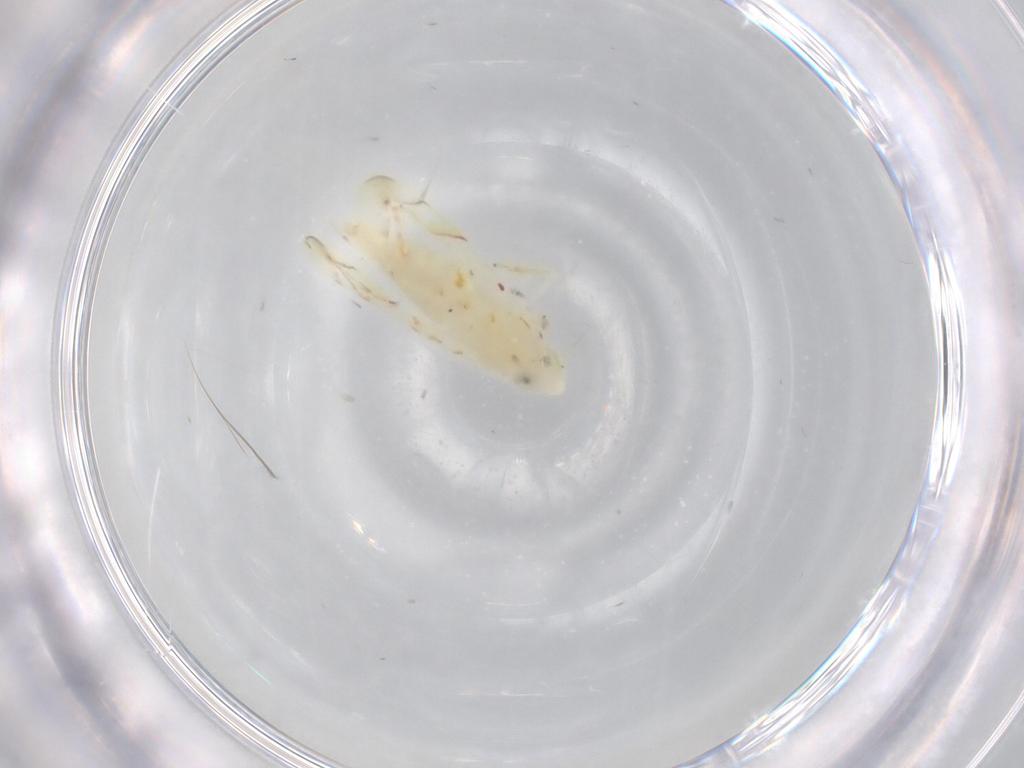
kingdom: Animalia
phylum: Arthropoda
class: Insecta
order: Hemiptera
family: Cicadellidae
